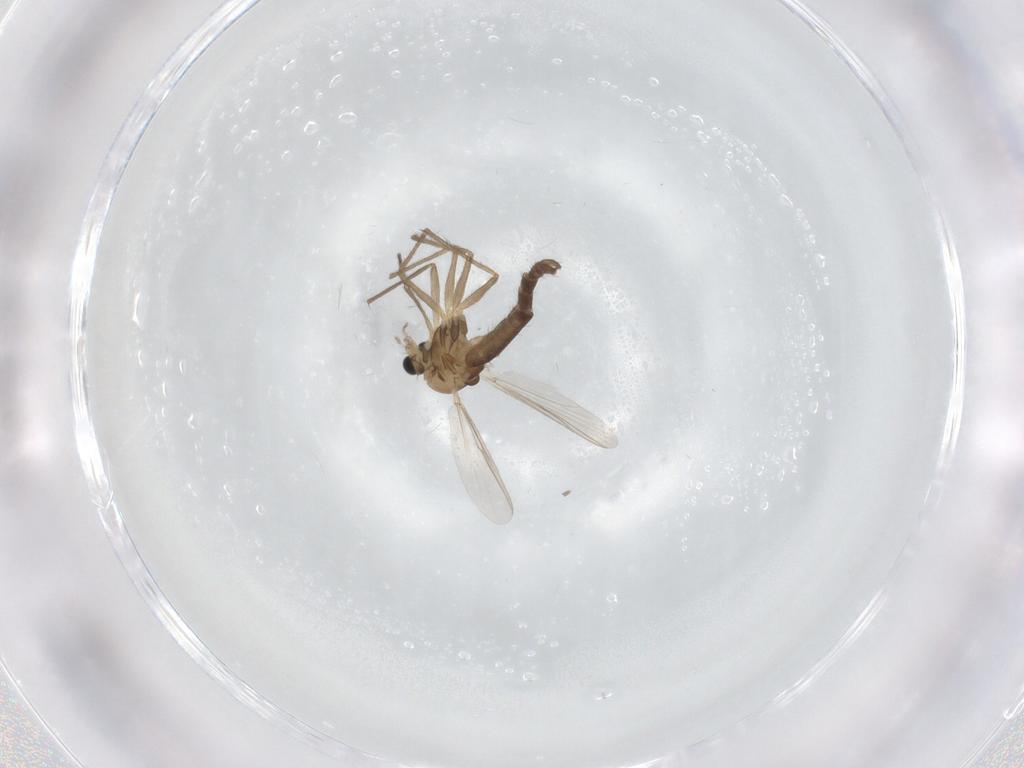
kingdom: Animalia
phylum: Arthropoda
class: Insecta
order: Diptera
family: Chironomidae
